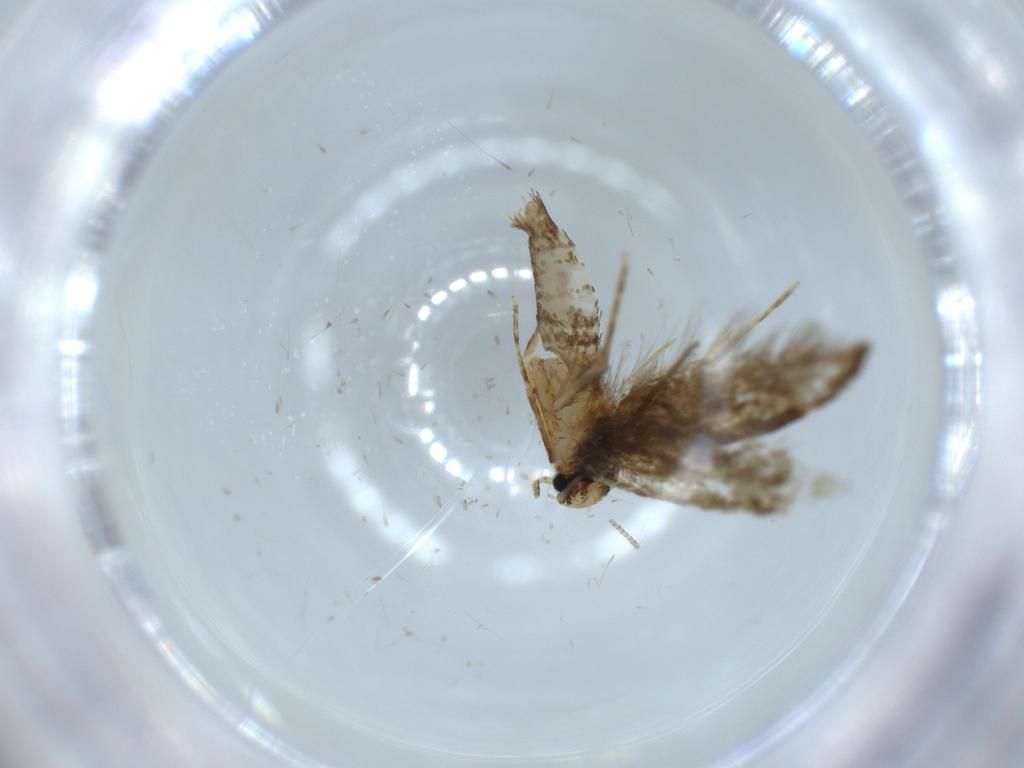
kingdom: Animalia
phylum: Arthropoda
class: Insecta
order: Lepidoptera
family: Tineidae
